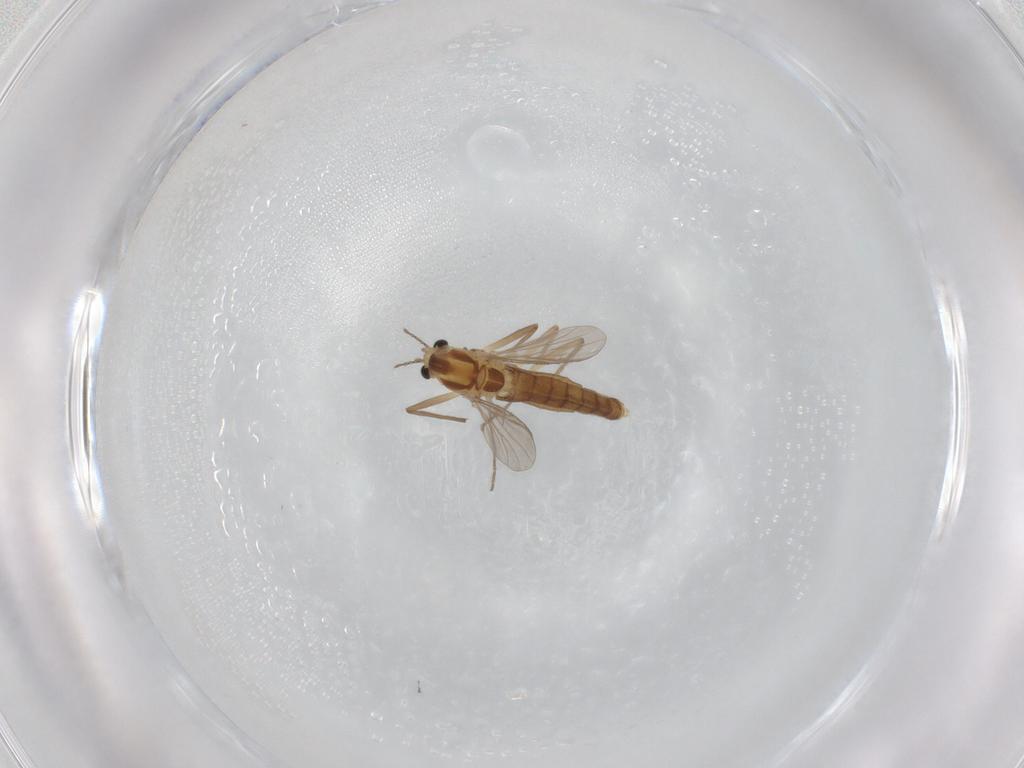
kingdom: Animalia
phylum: Arthropoda
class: Insecta
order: Diptera
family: Chironomidae
